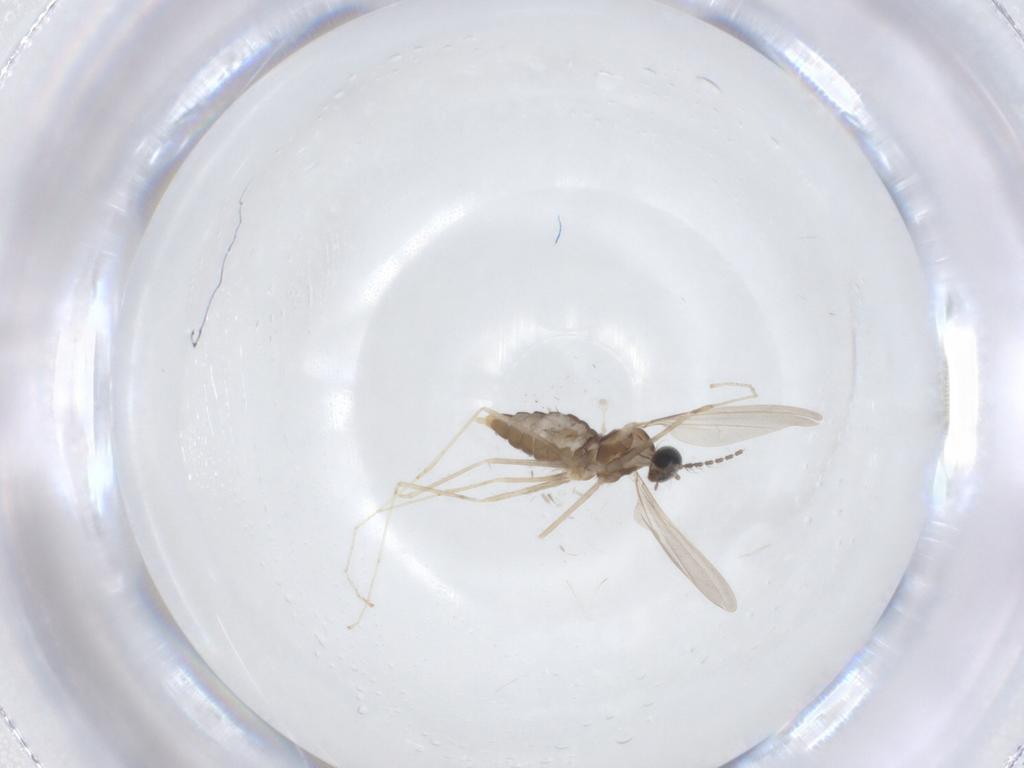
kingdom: Animalia
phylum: Arthropoda
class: Insecta
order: Diptera
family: Cecidomyiidae
